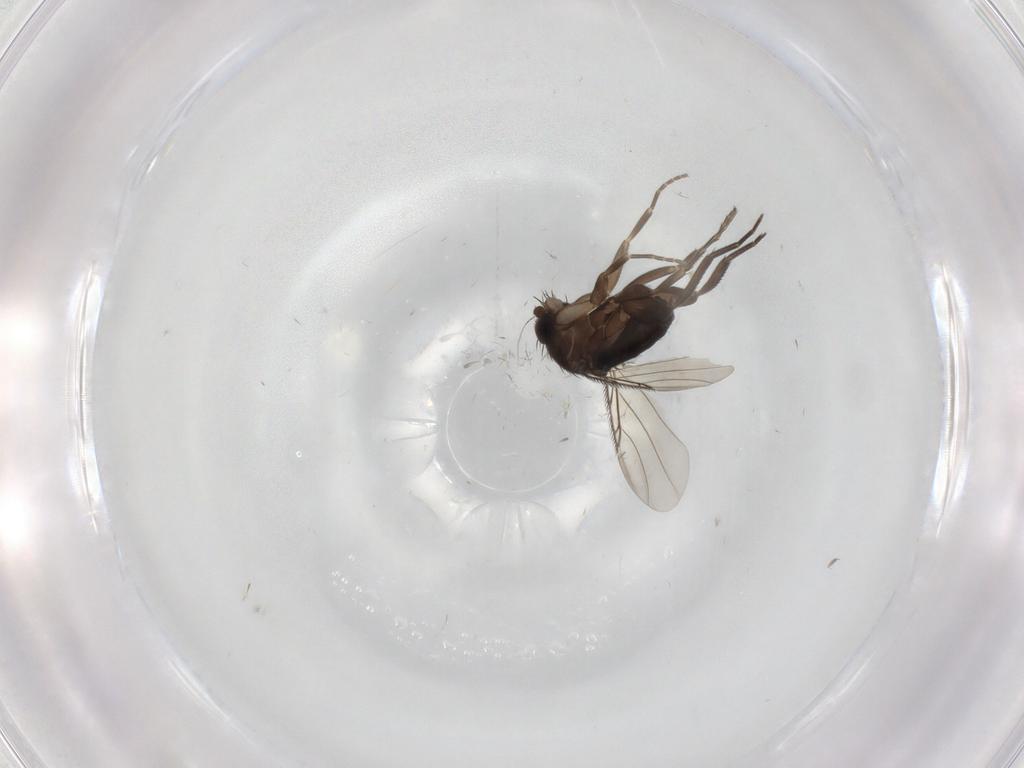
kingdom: Animalia
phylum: Arthropoda
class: Insecta
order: Diptera
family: Phoridae
